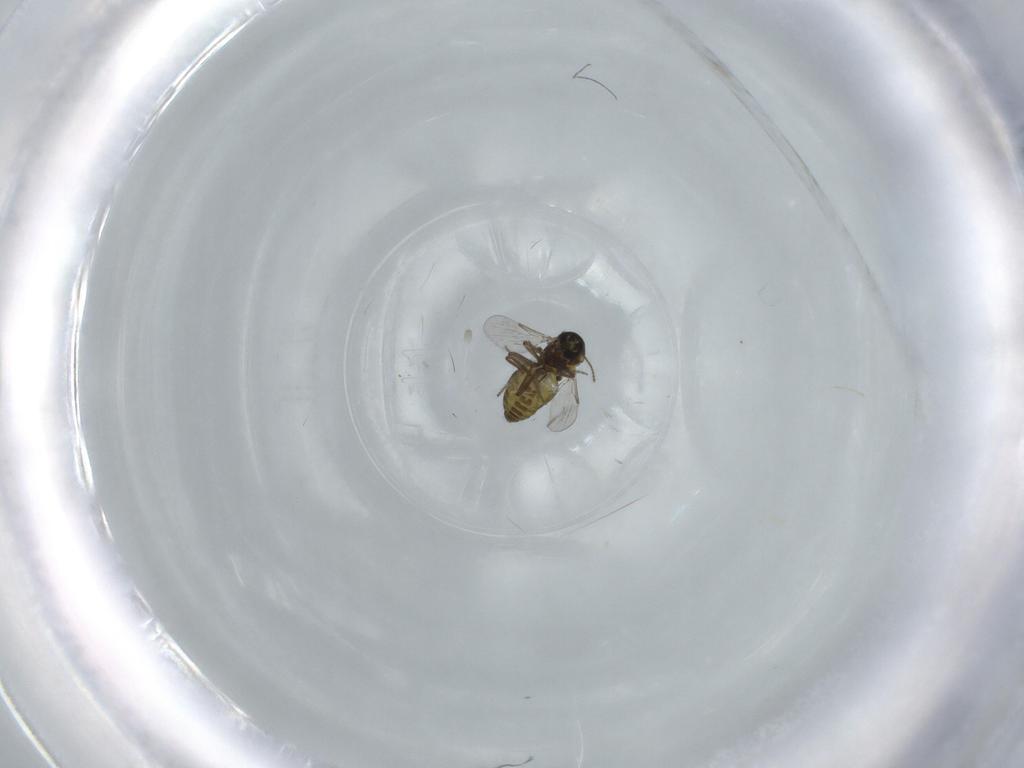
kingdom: Animalia
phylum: Arthropoda
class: Insecta
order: Diptera
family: Ceratopogonidae
